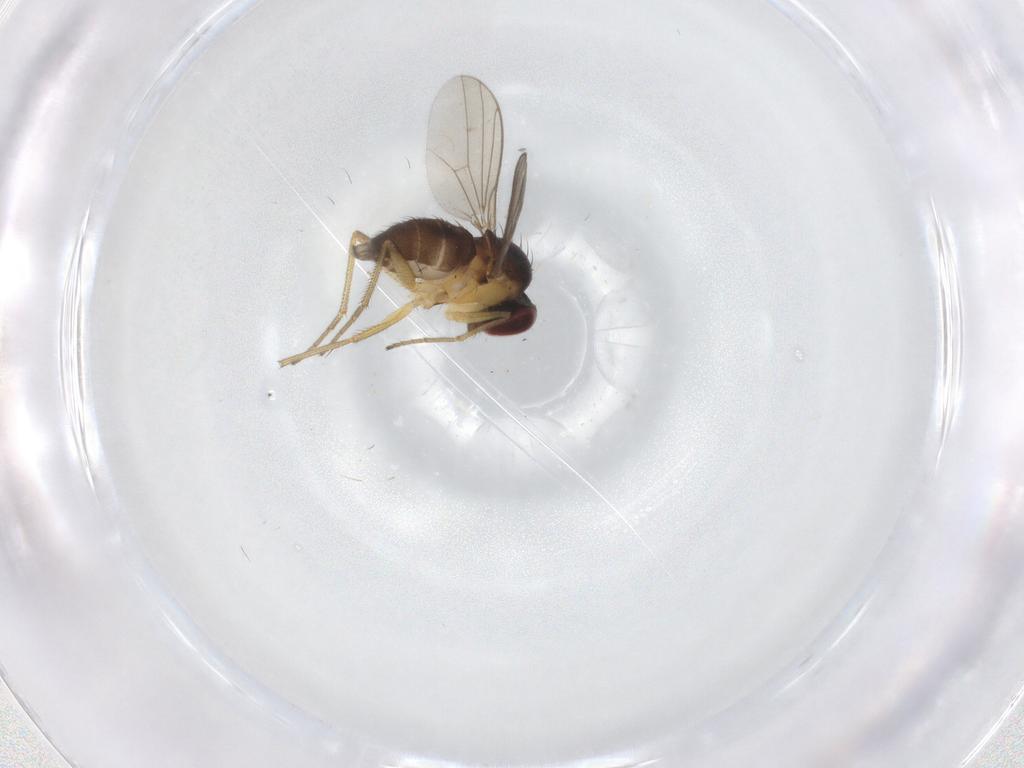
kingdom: Animalia
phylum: Arthropoda
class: Insecta
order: Diptera
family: Dolichopodidae
